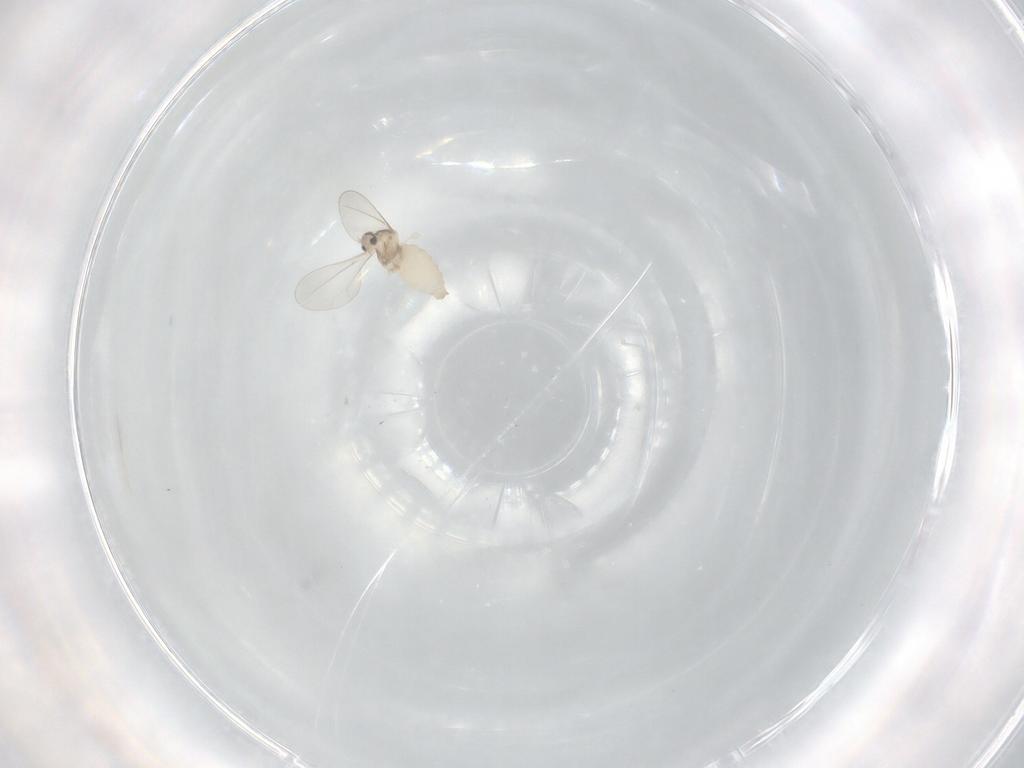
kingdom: Animalia
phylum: Arthropoda
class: Insecta
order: Diptera
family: Cecidomyiidae
